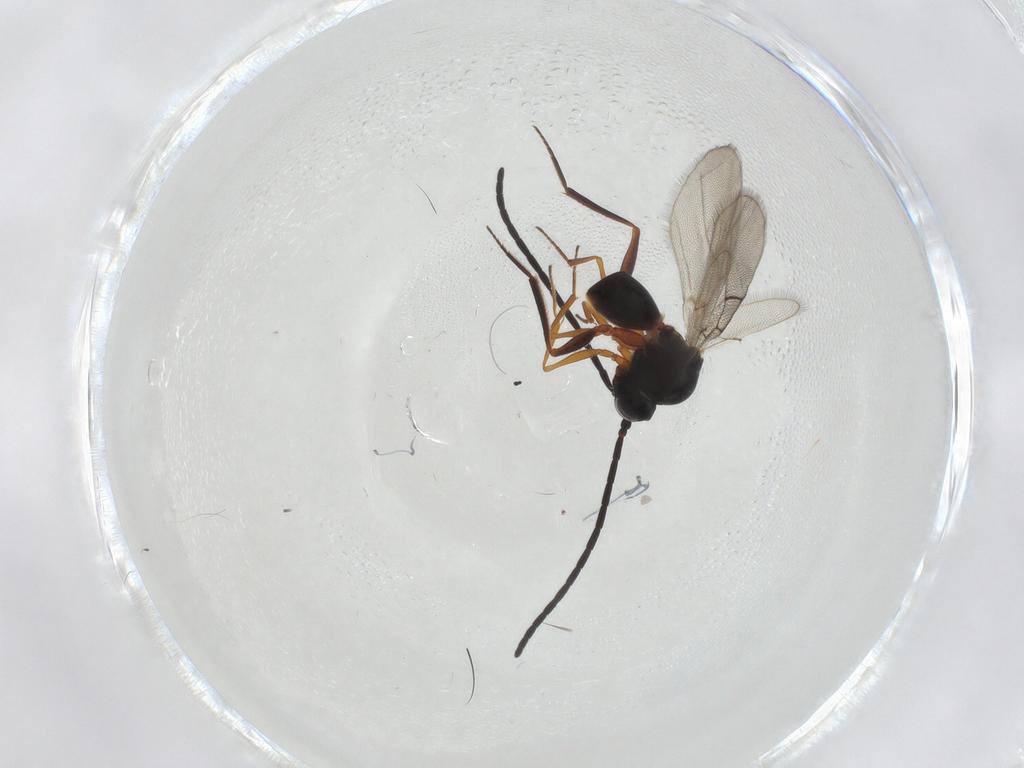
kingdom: Animalia
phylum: Arthropoda
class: Insecta
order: Hymenoptera
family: Figitidae
